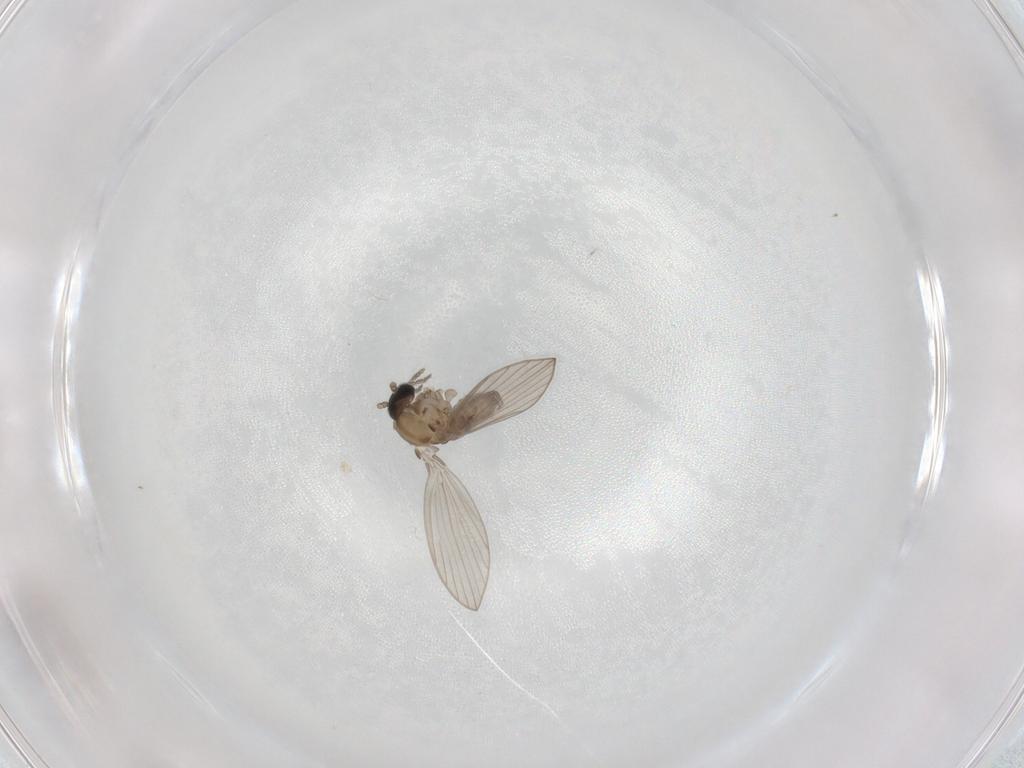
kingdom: Animalia
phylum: Arthropoda
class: Insecta
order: Diptera
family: Psychodidae
